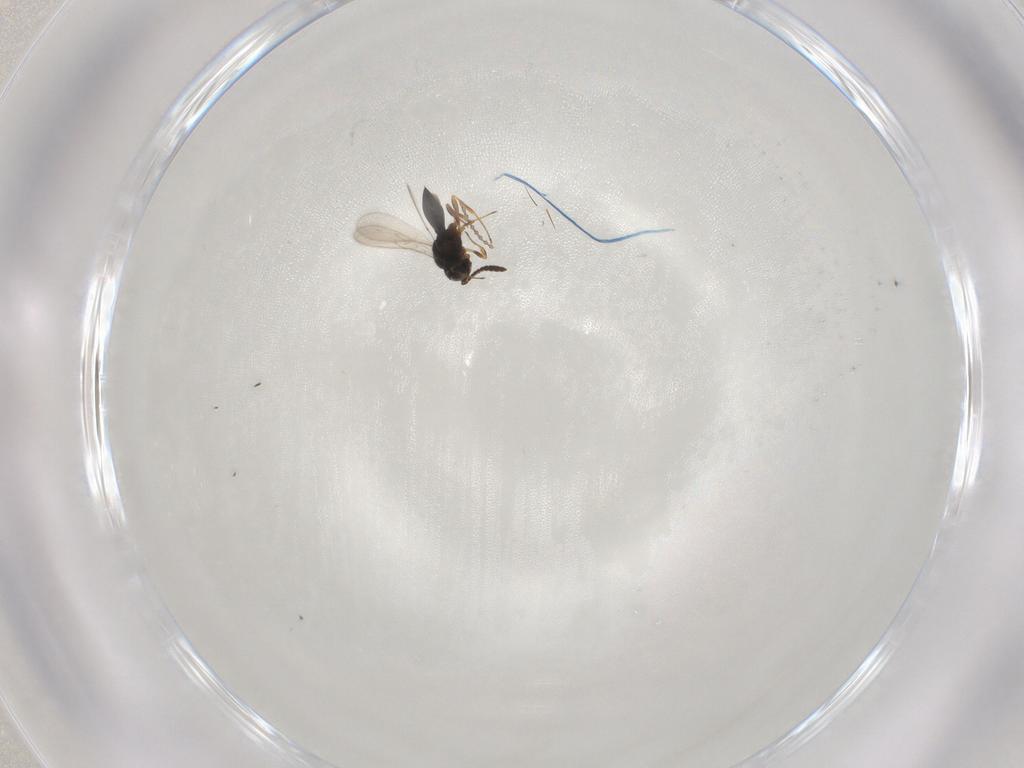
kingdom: Animalia
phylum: Arthropoda
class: Insecta
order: Hymenoptera
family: Scelionidae
